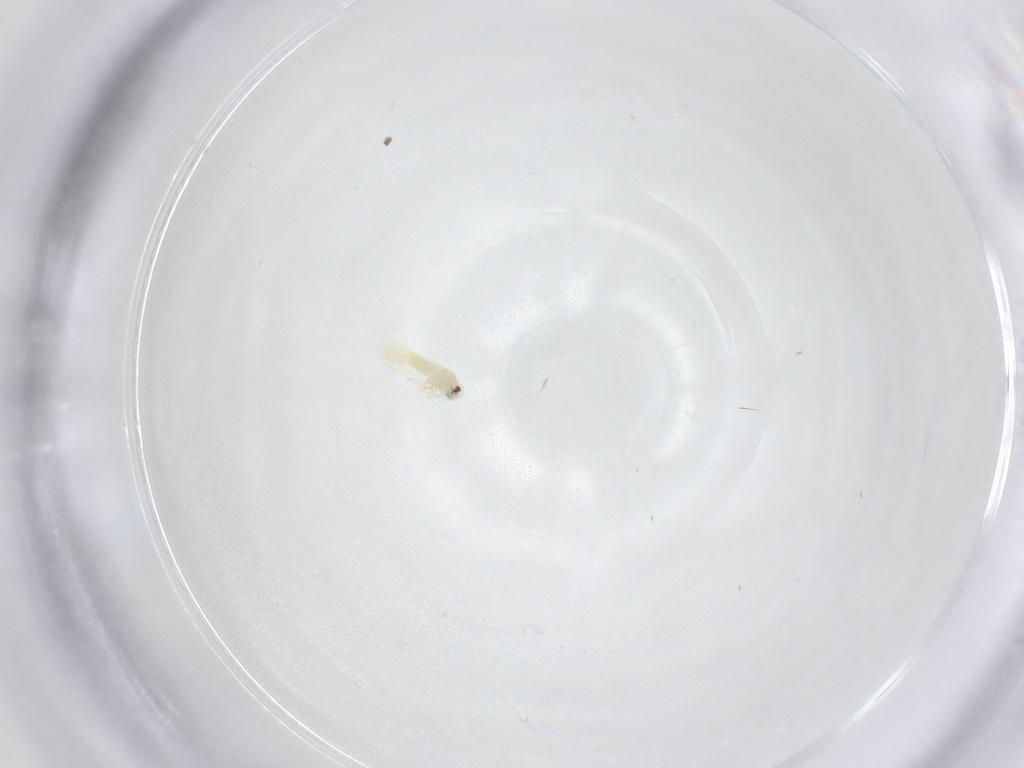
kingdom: Animalia
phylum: Arthropoda
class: Insecta
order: Hemiptera
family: Aleyrodidae
